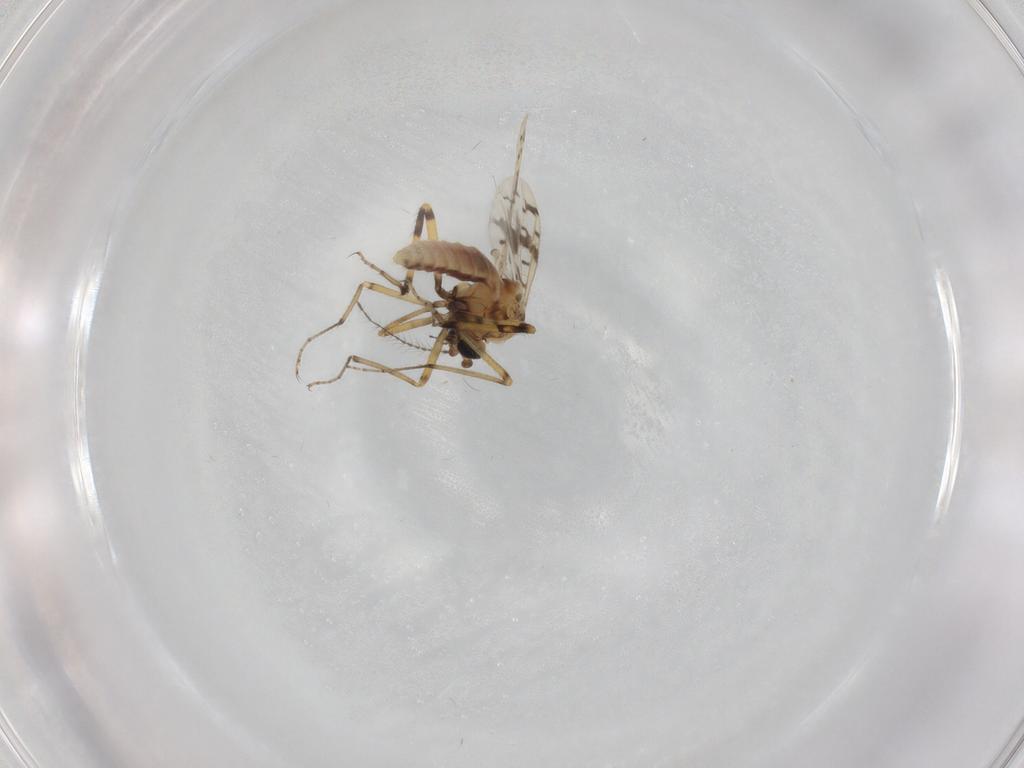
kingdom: Animalia
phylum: Arthropoda
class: Insecta
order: Diptera
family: Ceratopogonidae
